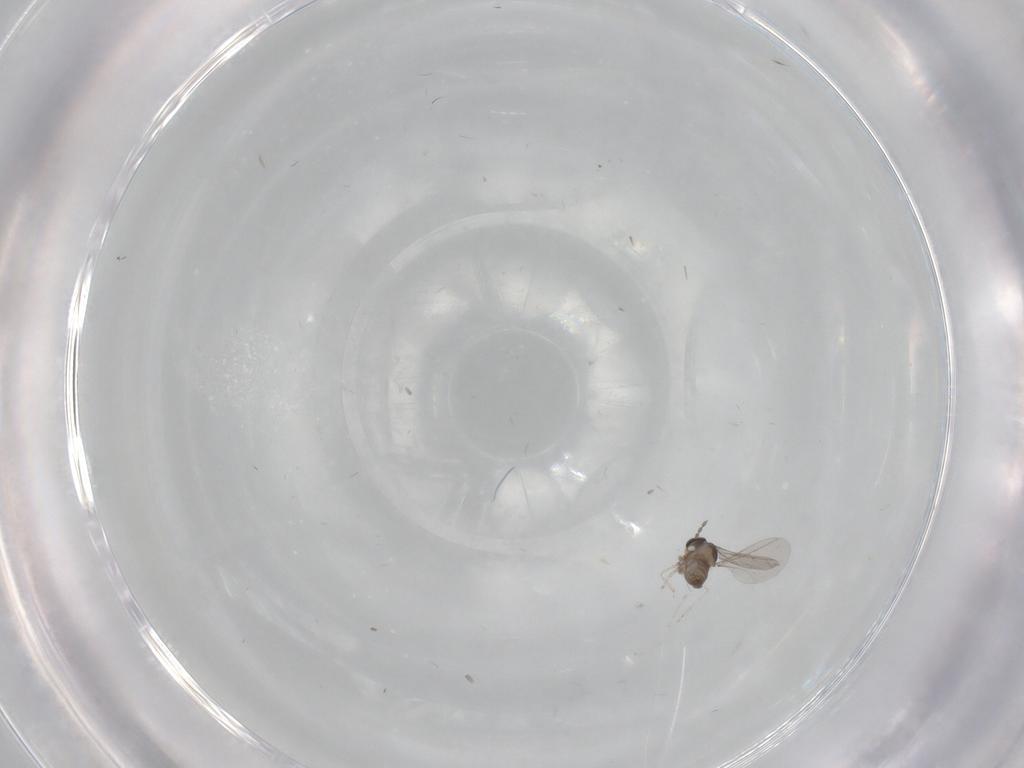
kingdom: Animalia
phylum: Arthropoda
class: Insecta
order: Diptera
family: Cecidomyiidae
